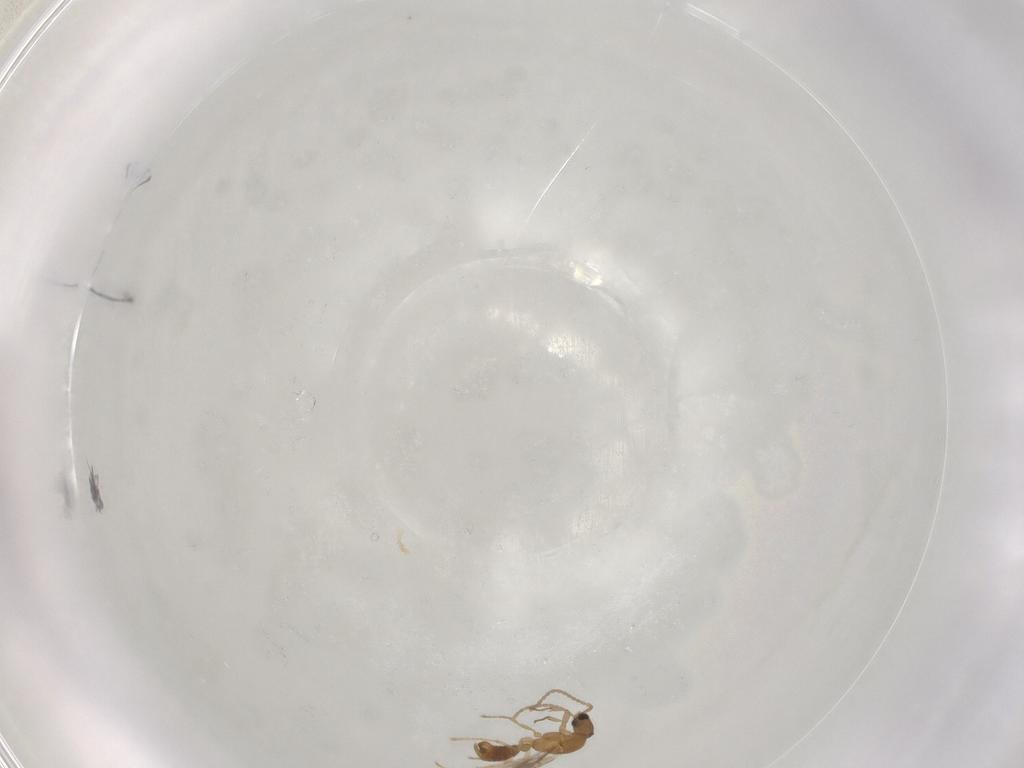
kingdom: Animalia
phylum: Arthropoda
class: Insecta
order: Hymenoptera
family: Formicidae
